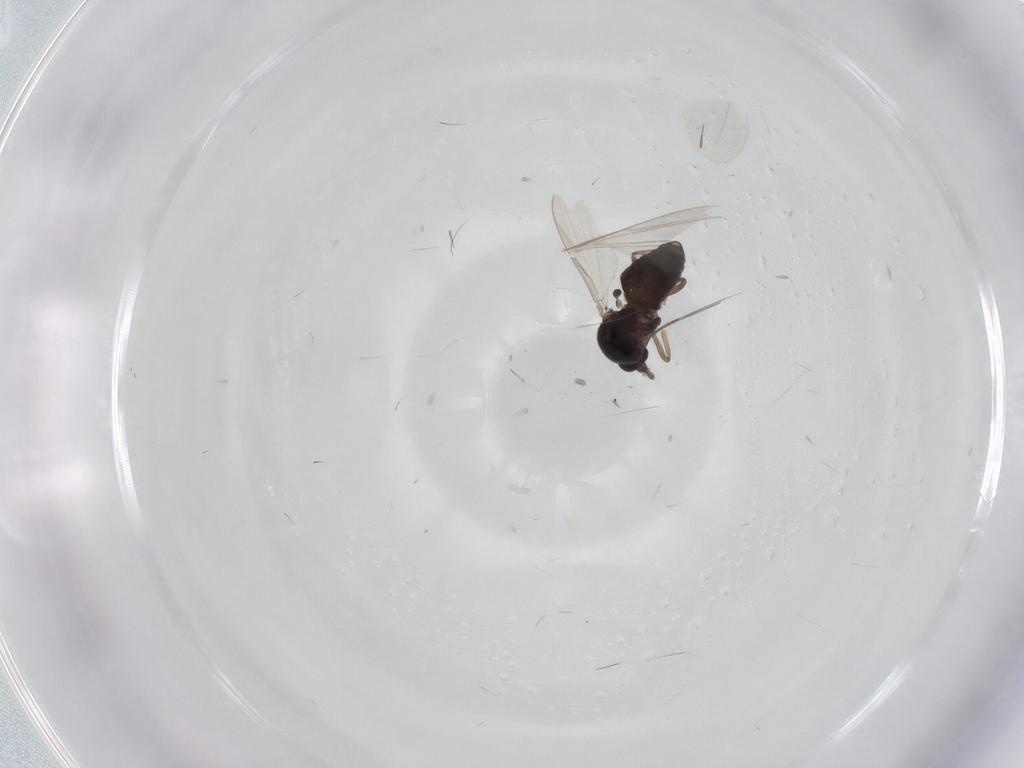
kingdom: Animalia
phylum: Arthropoda
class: Insecta
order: Diptera
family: Ceratopogonidae
